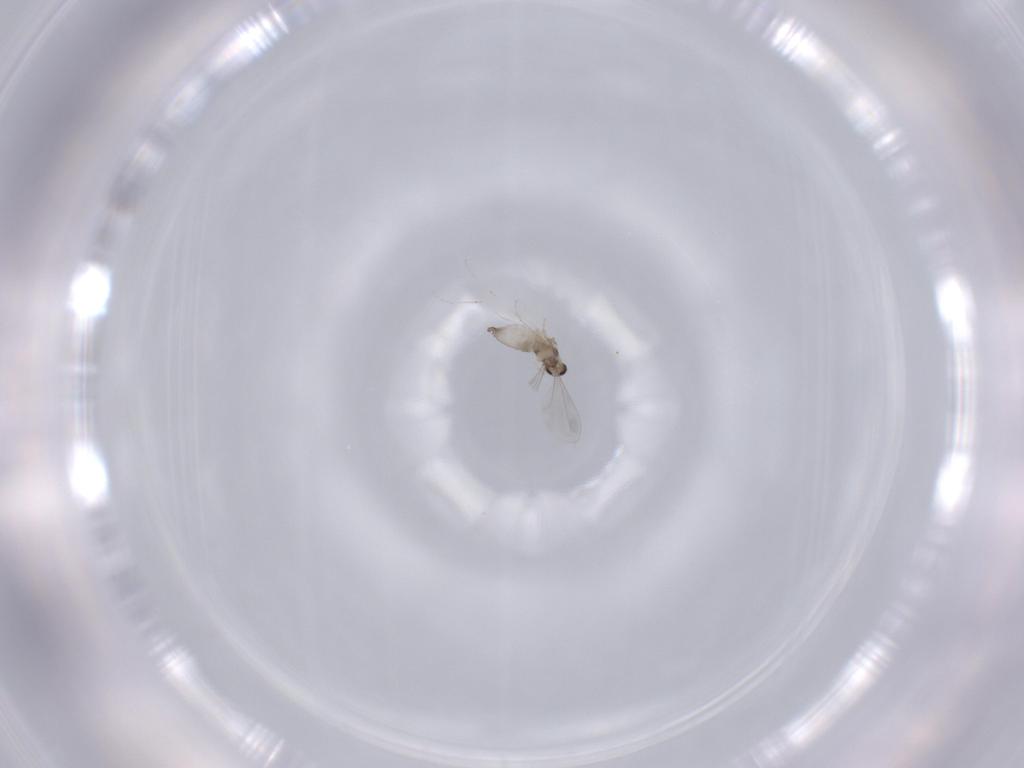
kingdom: Animalia
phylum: Arthropoda
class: Insecta
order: Diptera
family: Cecidomyiidae
